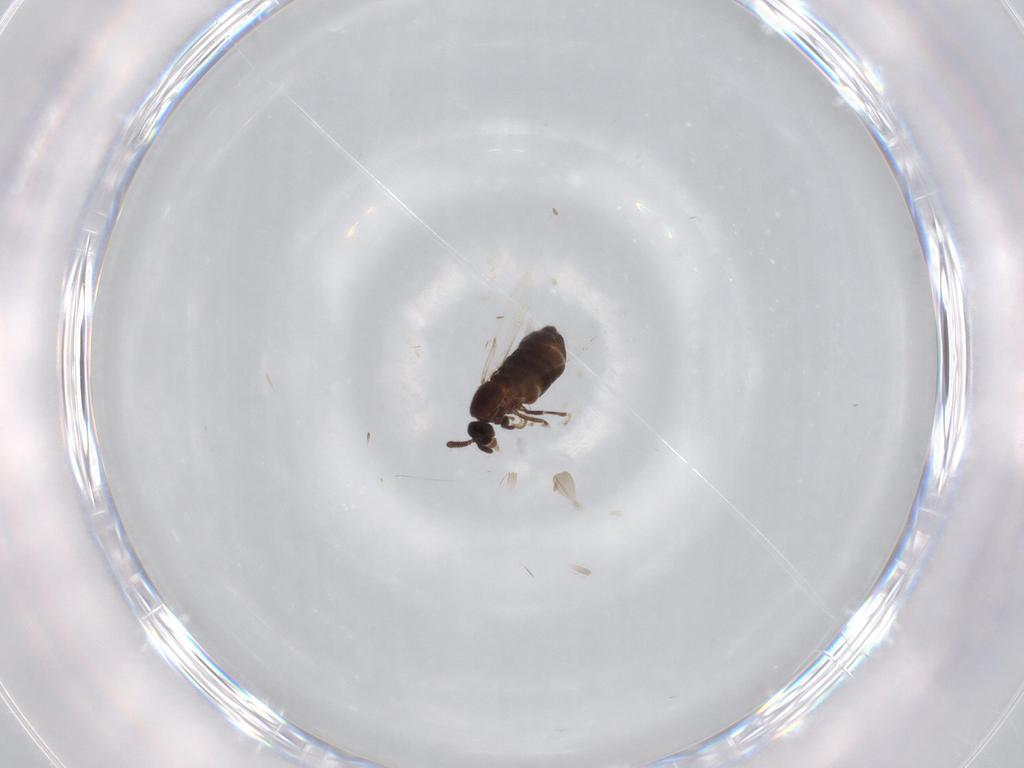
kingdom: Animalia
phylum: Arthropoda
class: Insecta
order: Diptera
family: Scatopsidae
